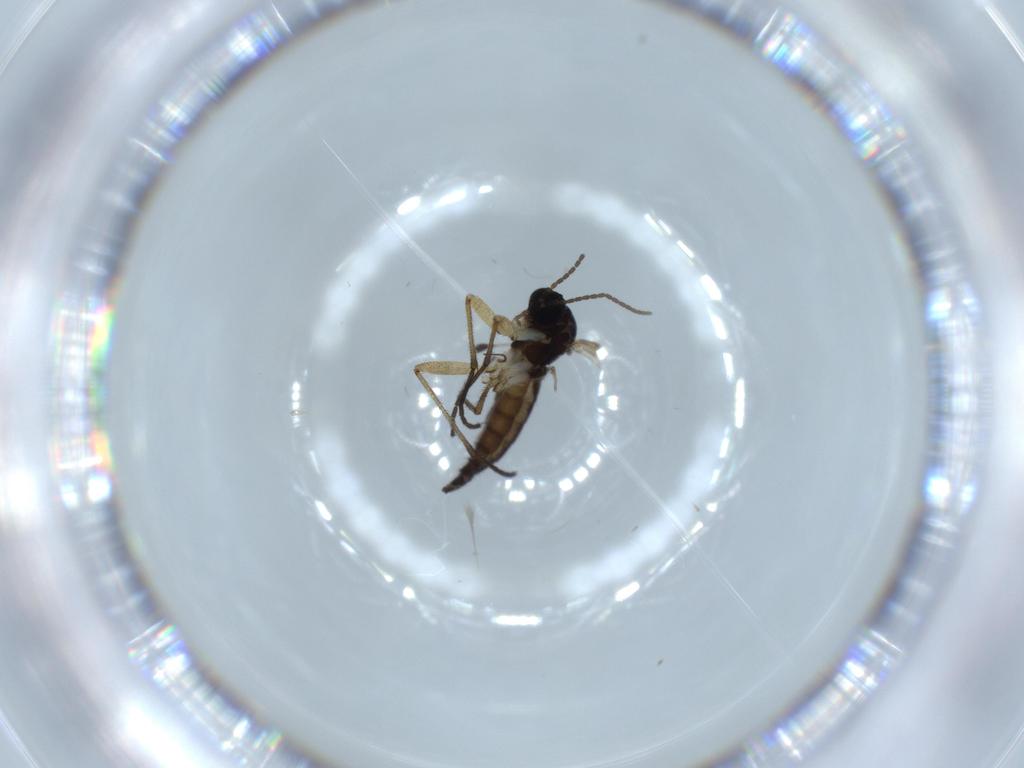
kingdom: Animalia
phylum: Arthropoda
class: Insecta
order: Diptera
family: Sciaridae
